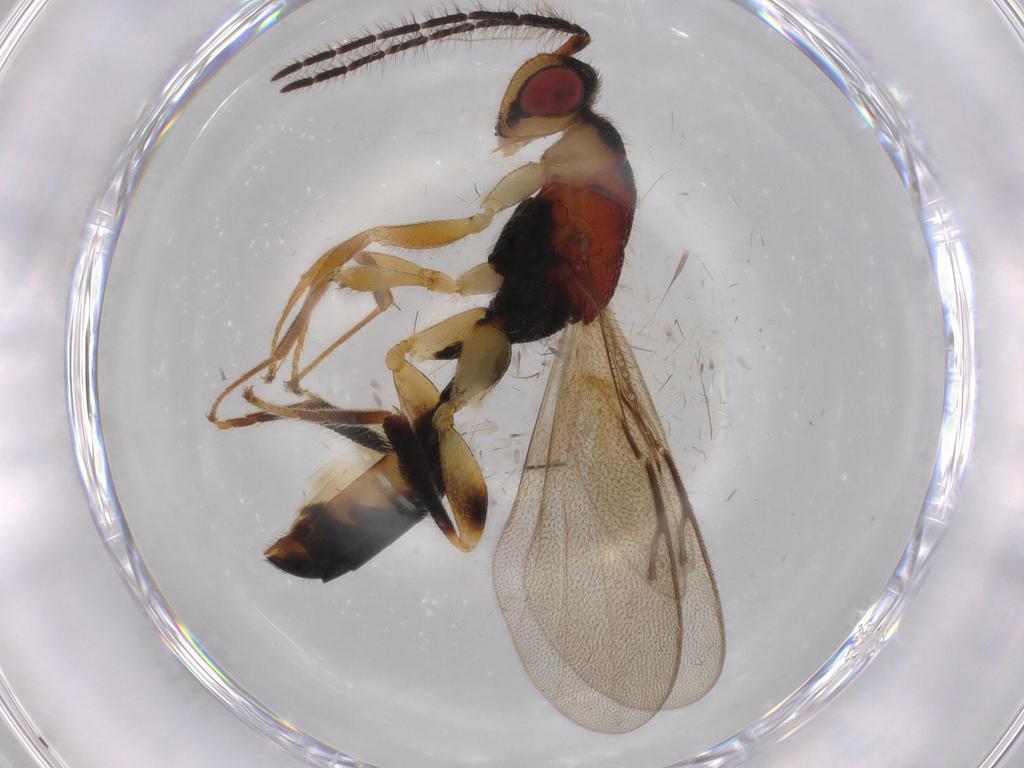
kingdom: Animalia
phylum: Arthropoda
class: Insecta
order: Hymenoptera
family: Eurytomidae
